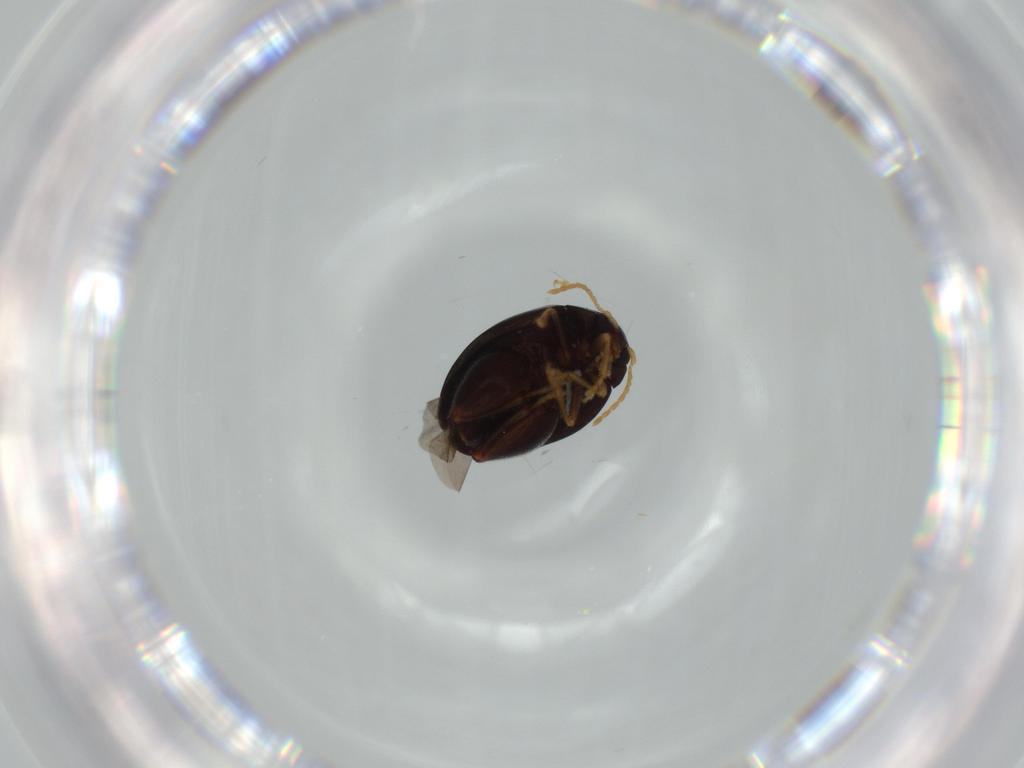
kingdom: Animalia
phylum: Arthropoda
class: Insecta
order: Coleoptera
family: Chrysomelidae
